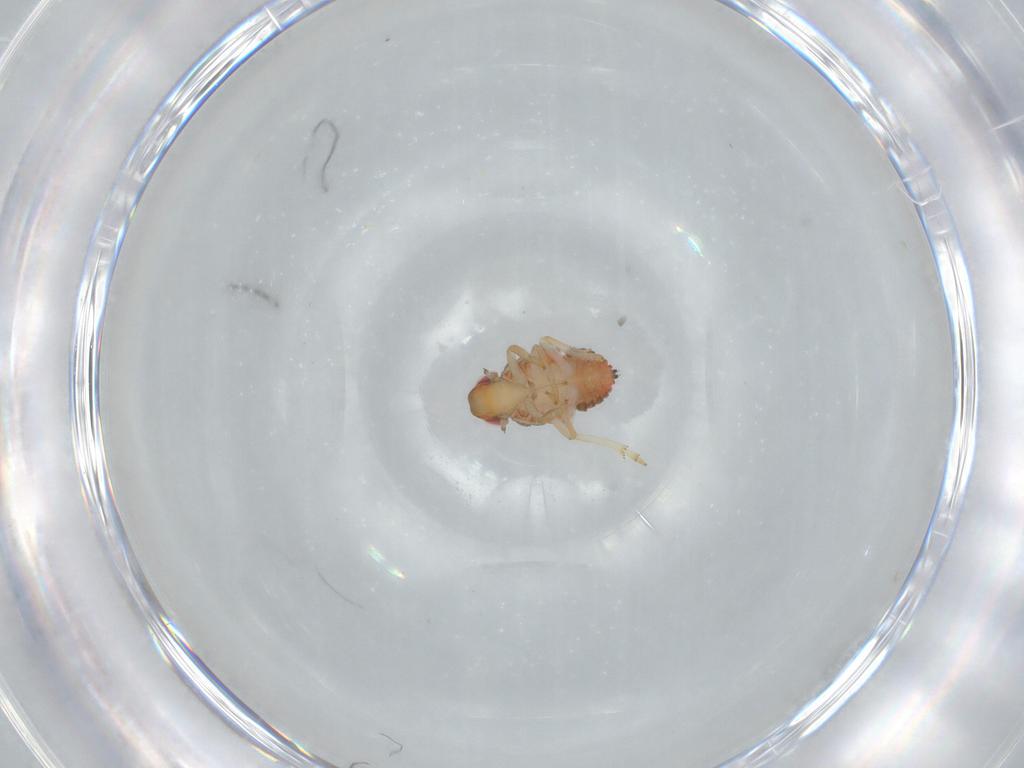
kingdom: Animalia
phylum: Arthropoda
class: Insecta
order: Hemiptera
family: Issidae
